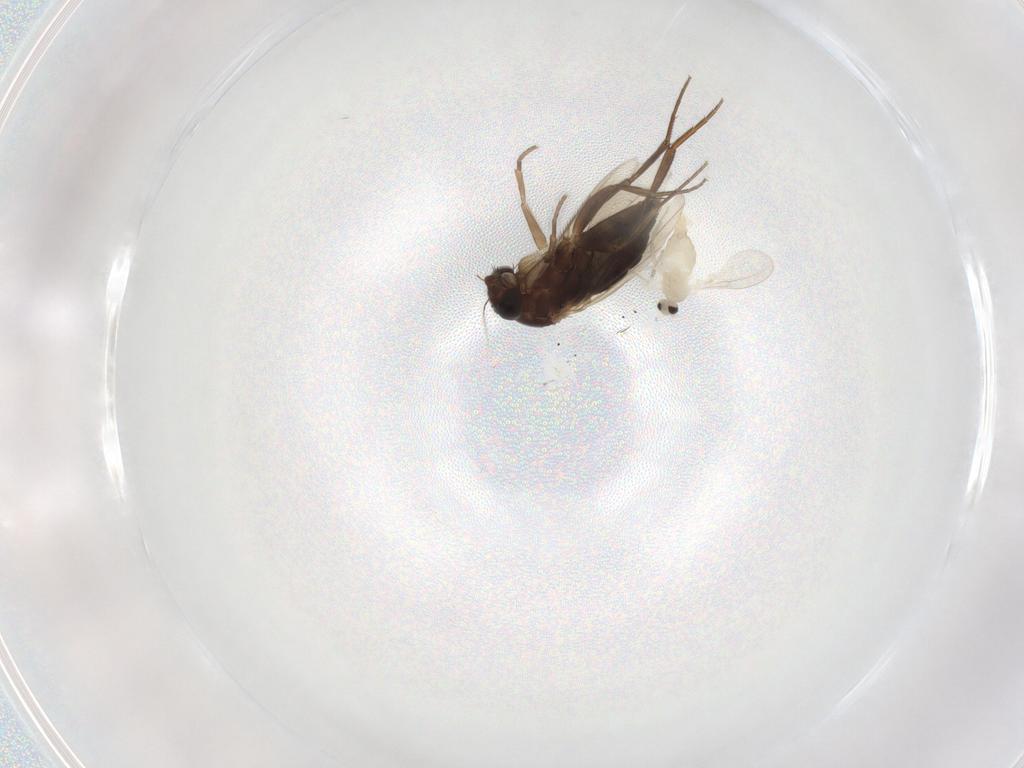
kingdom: Animalia
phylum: Arthropoda
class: Insecta
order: Diptera
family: Cecidomyiidae
